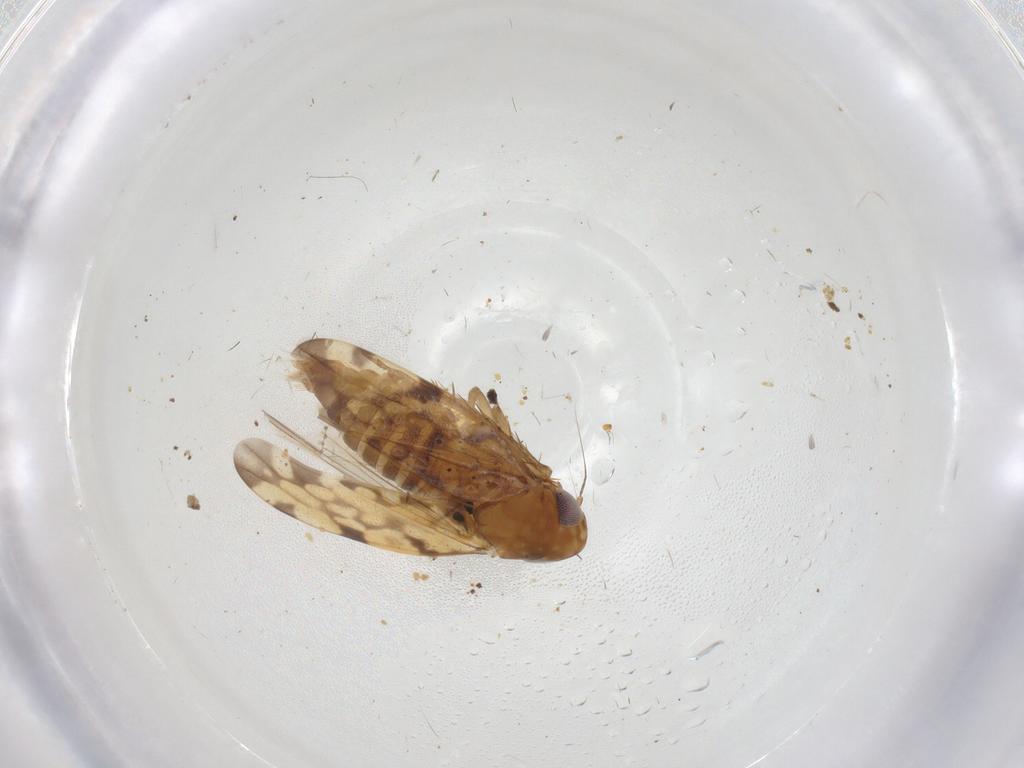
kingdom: Animalia
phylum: Arthropoda
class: Insecta
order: Hemiptera
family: Cicadellidae
